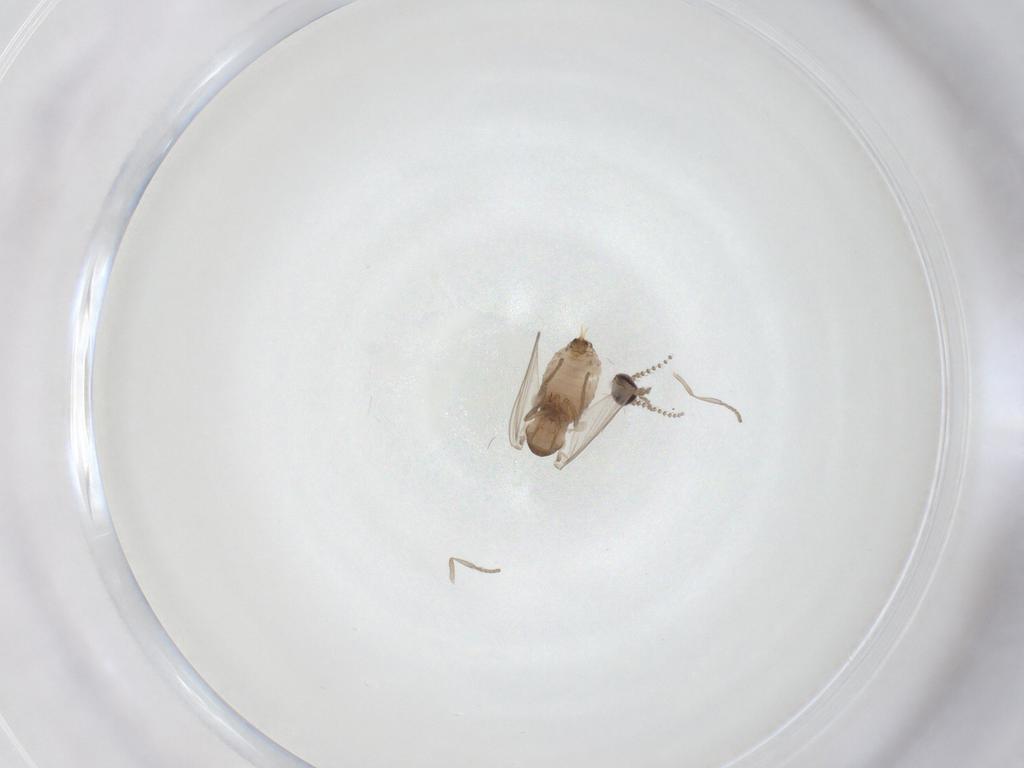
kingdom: Animalia
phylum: Arthropoda
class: Insecta
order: Diptera
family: Psychodidae
